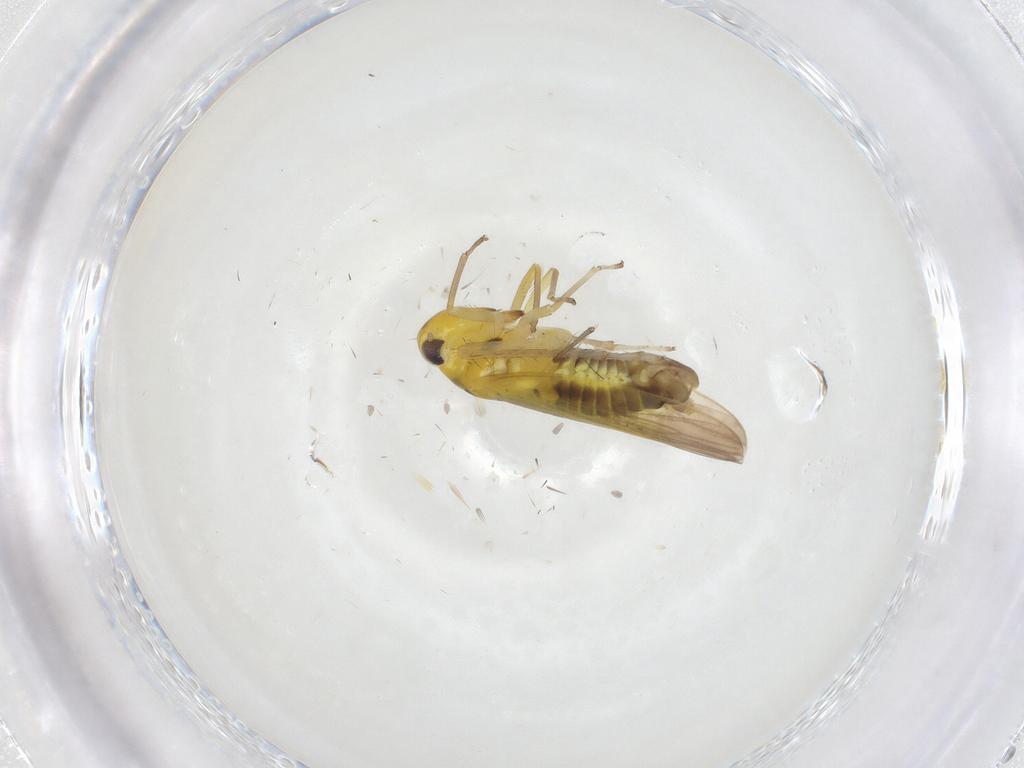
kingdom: Animalia
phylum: Arthropoda
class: Insecta
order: Hemiptera
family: Cicadellidae
